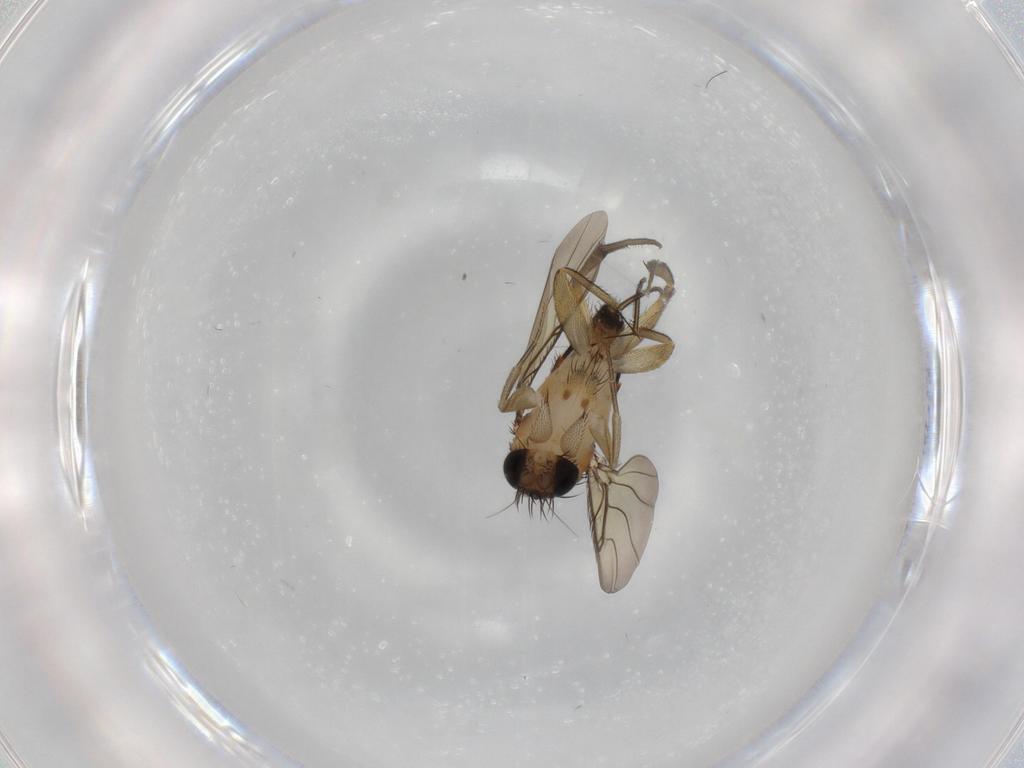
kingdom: Animalia
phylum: Arthropoda
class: Insecta
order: Diptera
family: Phoridae
